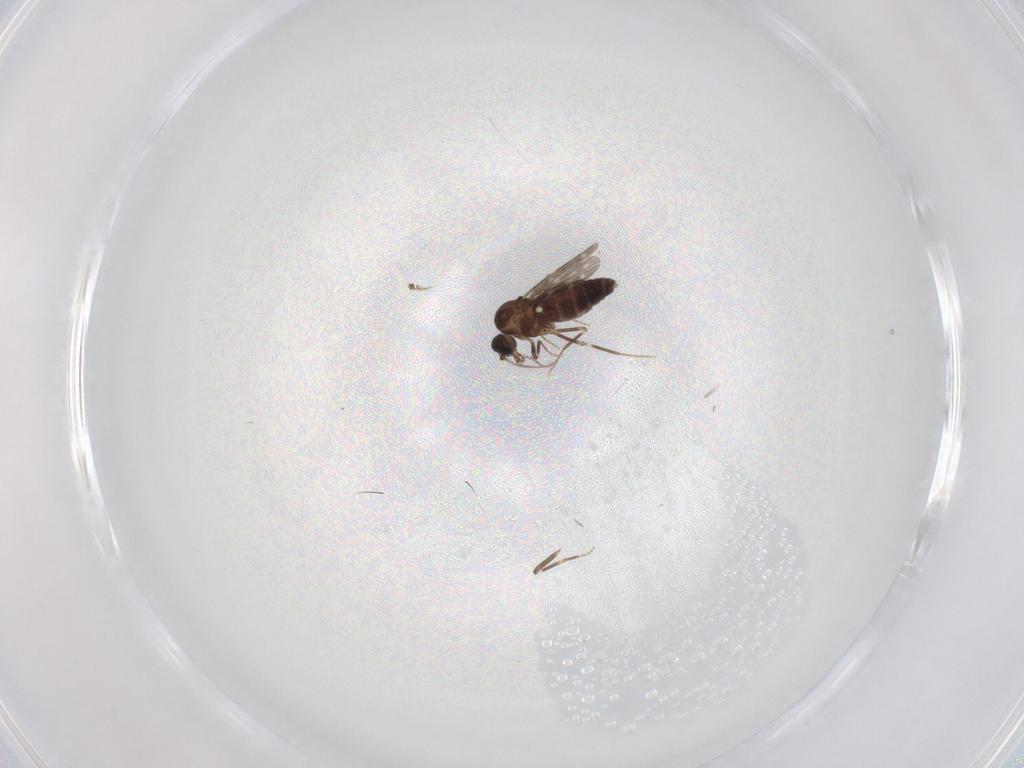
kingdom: Animalia
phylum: Arthropoda
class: Insecta
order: Diptera
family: Ceratopogonidae
